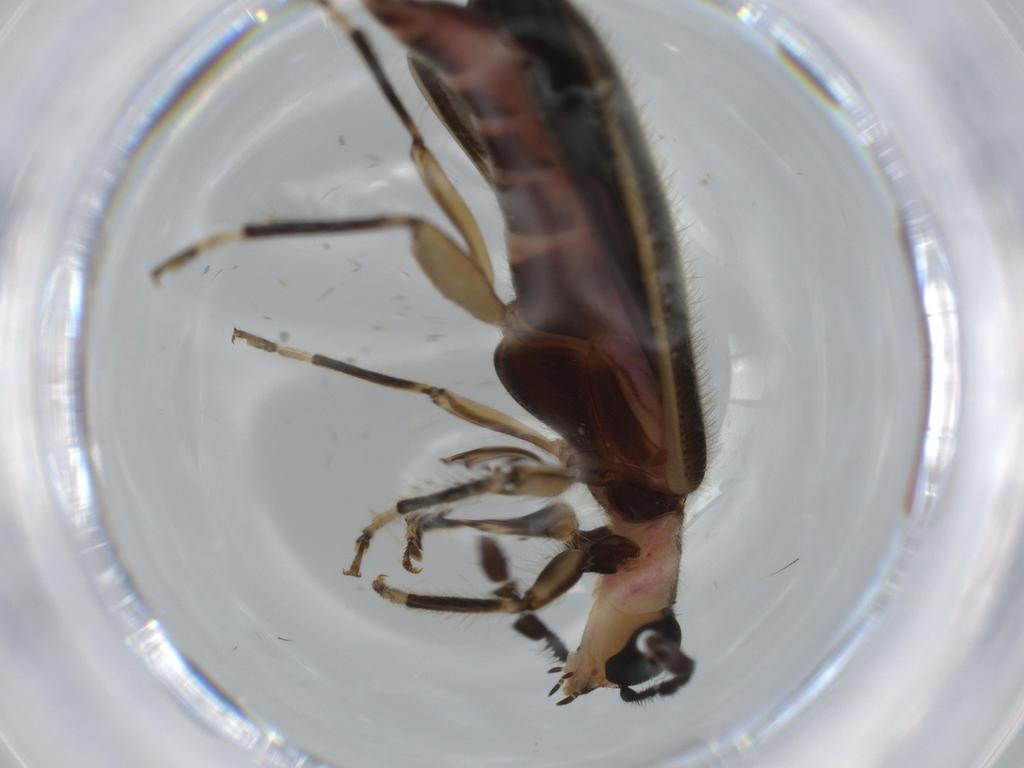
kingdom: Animalia
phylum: Arthropoda
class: Insecta
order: Coleoptera
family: Cleridae
